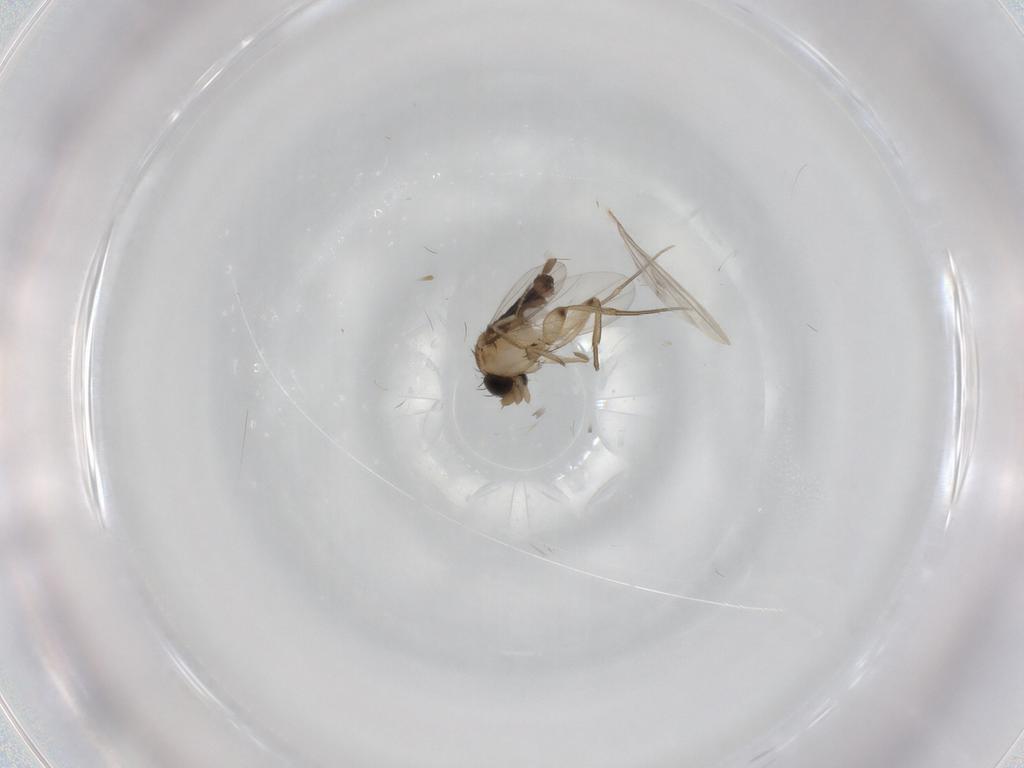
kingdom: Animalia
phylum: Arthropoda
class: Insecta
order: Diptera
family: Phoridae
